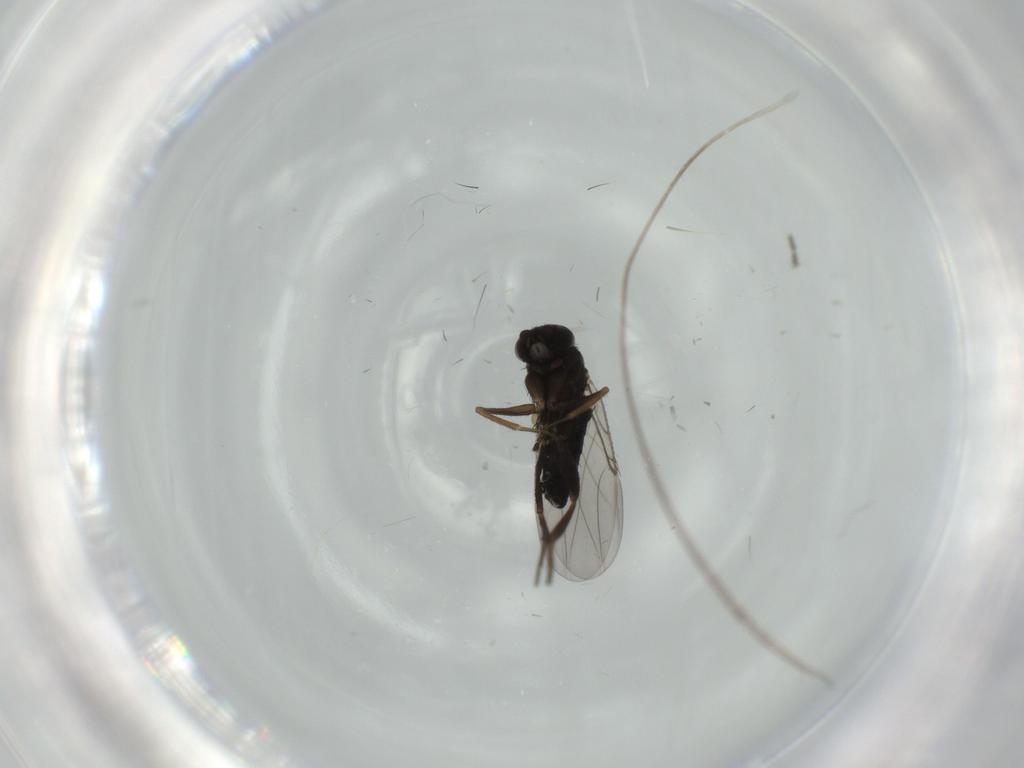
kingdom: Animalia
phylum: Arthropoda
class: Insecta
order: Diptera
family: Phoridae
